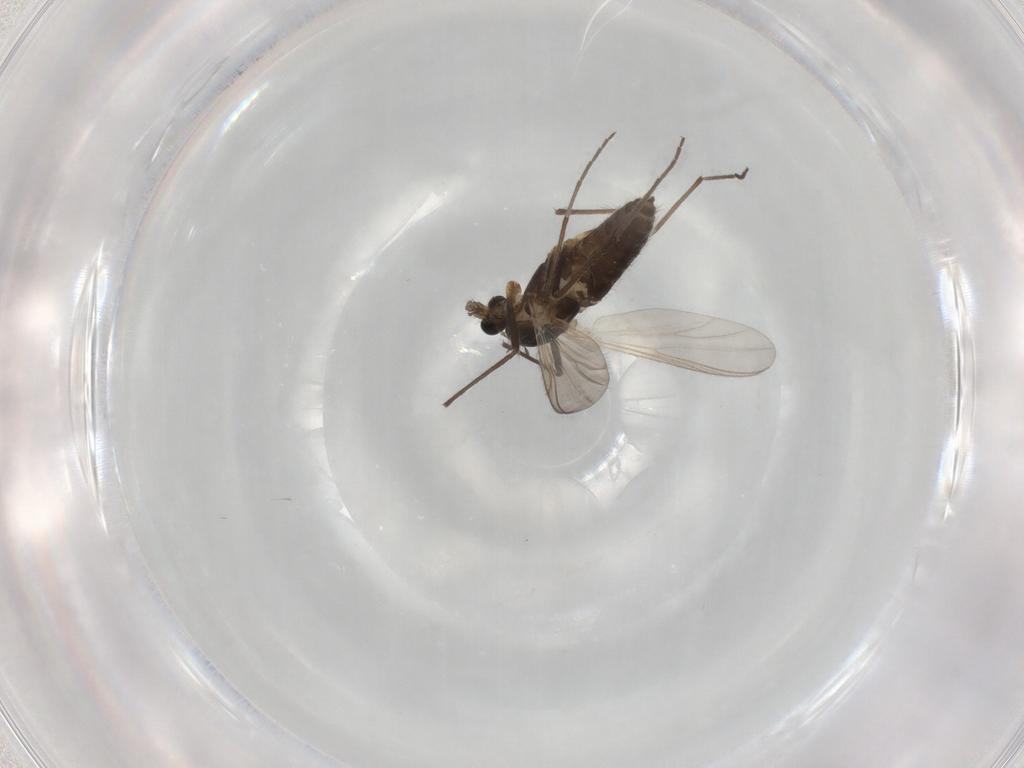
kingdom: Animalia
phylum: Arthropoda
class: Insecta
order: Diptera
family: Chironomidae
